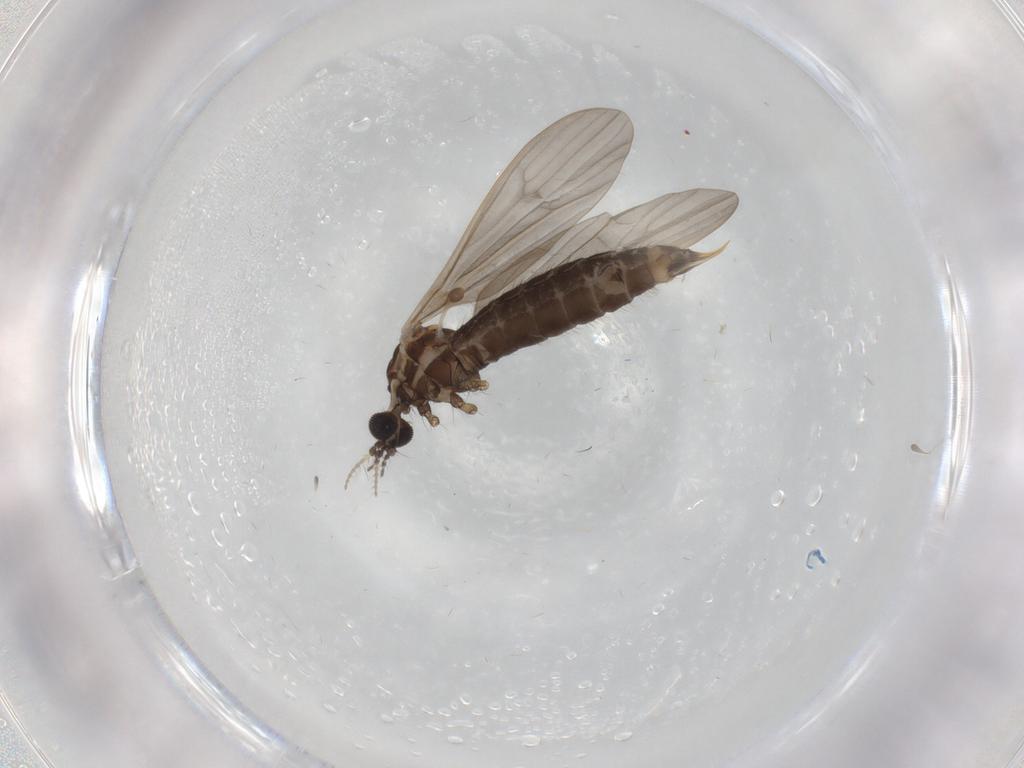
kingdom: Animalia
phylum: Arthropoda
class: Insecta
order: Diptera
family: Limoniidae
